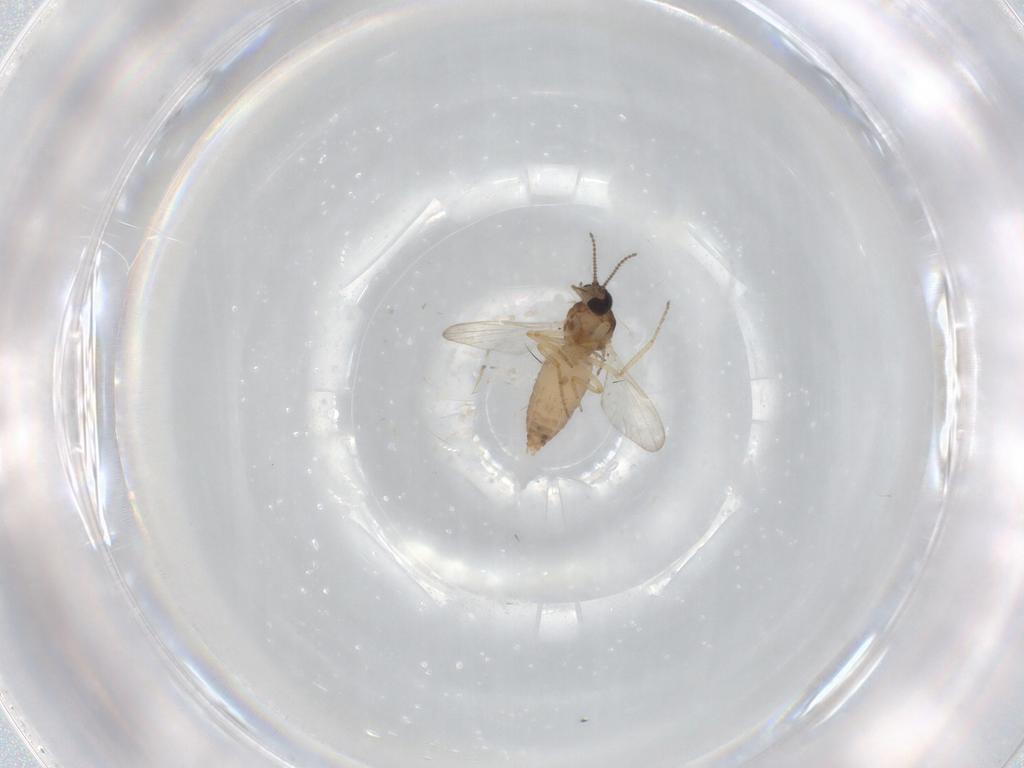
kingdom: Animalia
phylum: Arthropoda
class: Insecta
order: Diptera
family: Ceratopogonidae
